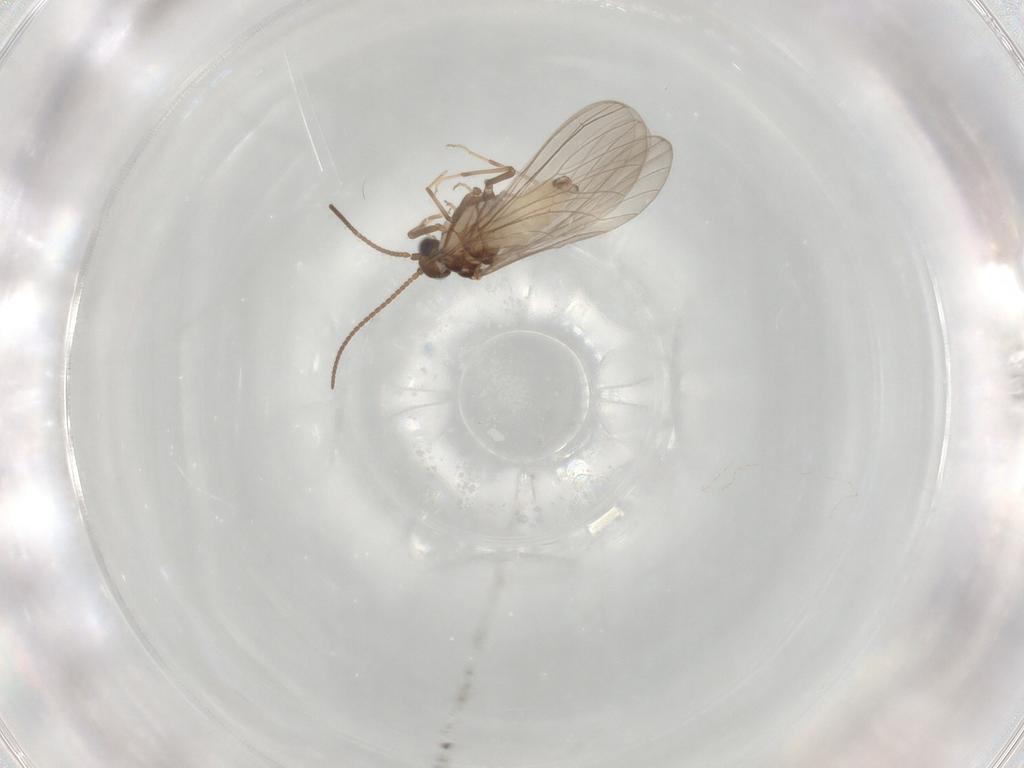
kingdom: Animalia
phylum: Arthropoda
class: Insecta
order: Neuroptera
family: Coniopterygidae
